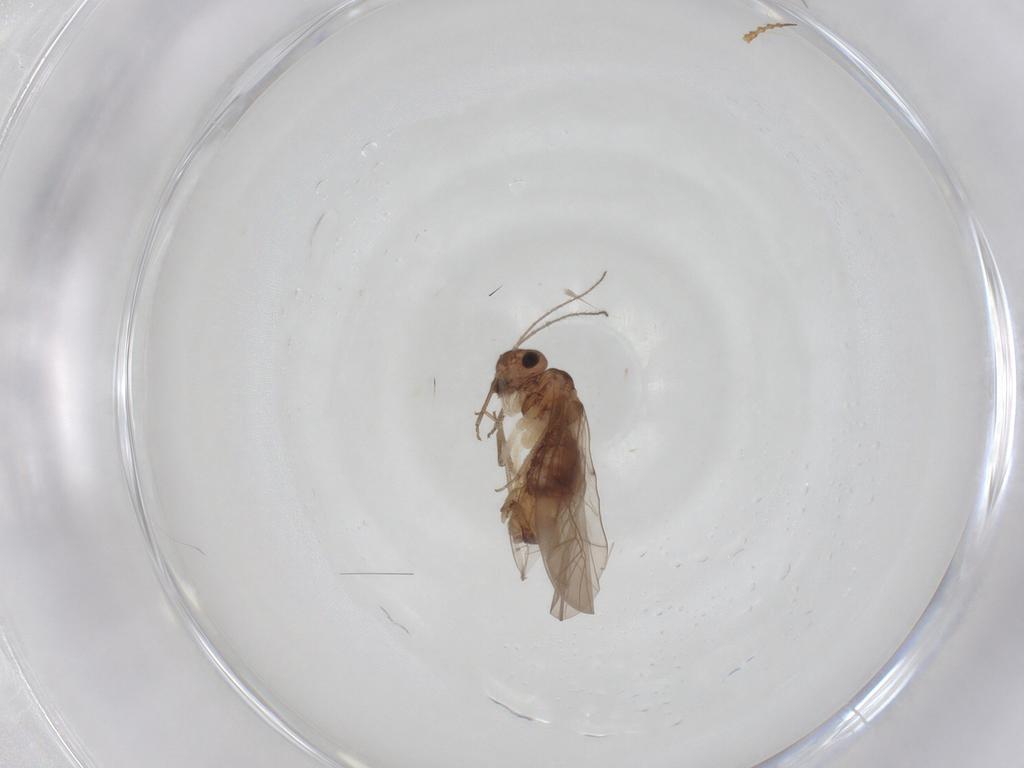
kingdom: Animalia
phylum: Arthropoda
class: Insecta
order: Psocodea
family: Peripsocidae
